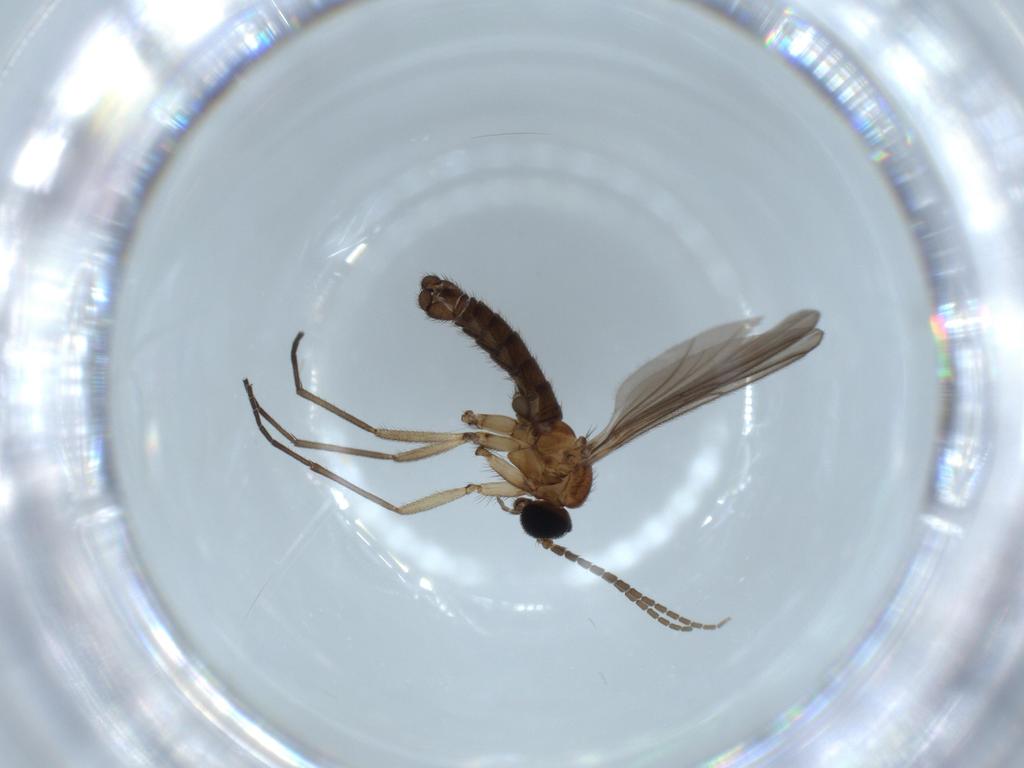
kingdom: Animalia
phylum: Arthropoda
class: Insecta
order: Diptera
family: Sciaridae
